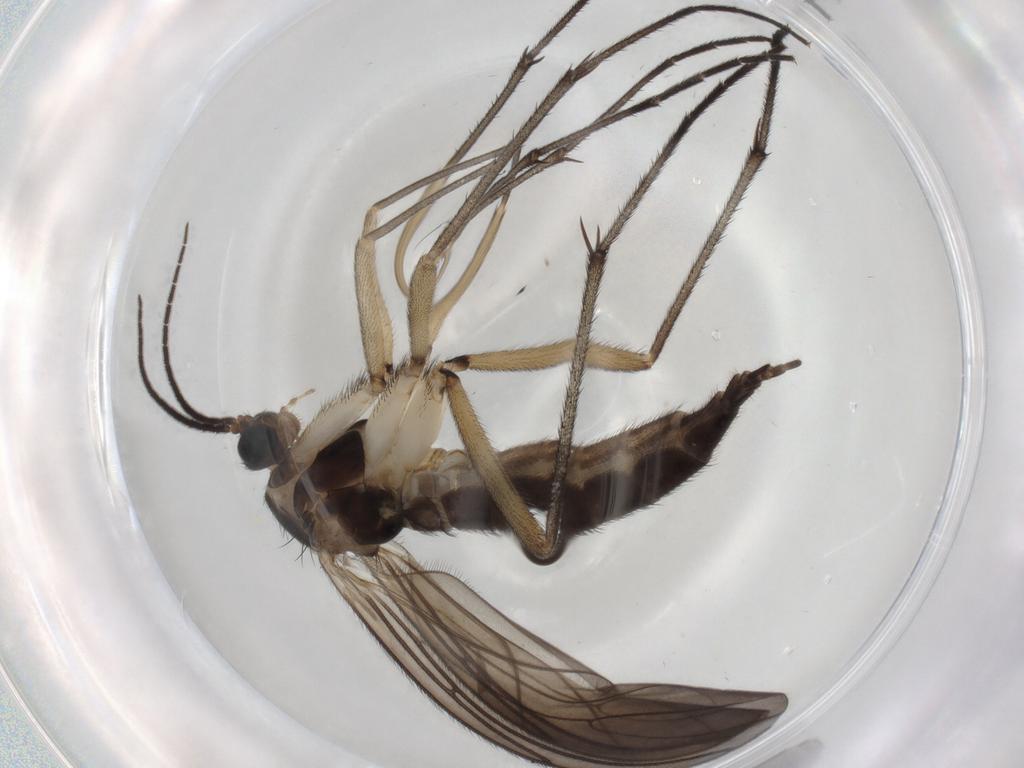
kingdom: Animalia
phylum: Arthropoda
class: Insecta
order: Diptera
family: Sciaridae
